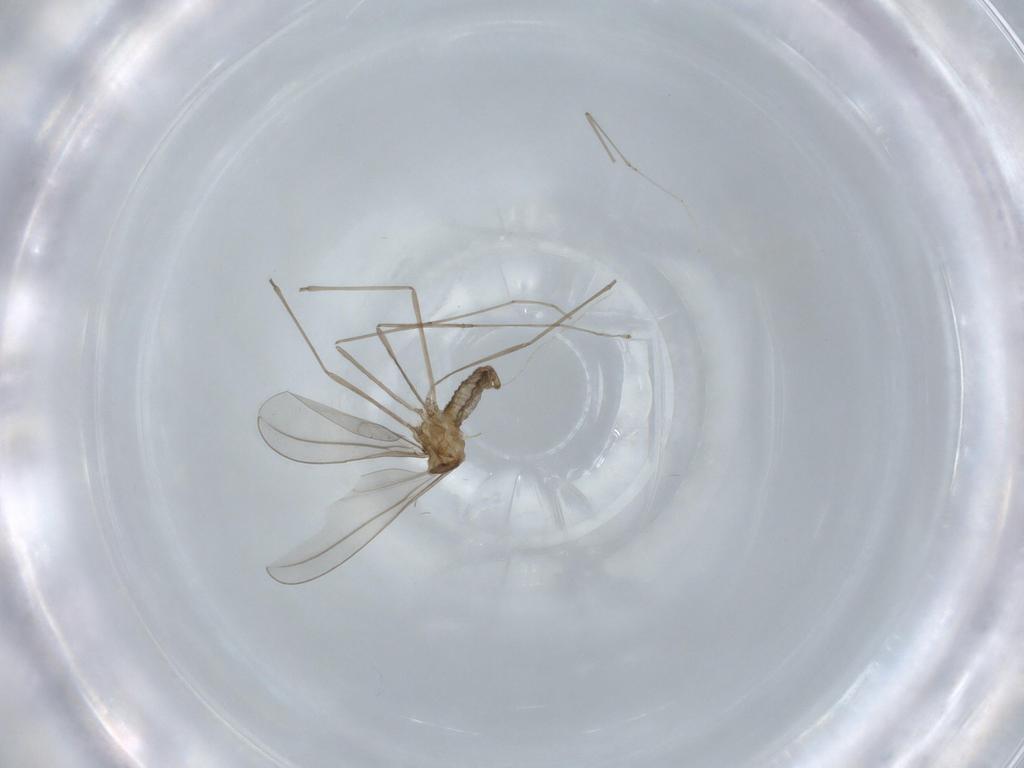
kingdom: Animalia
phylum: Arthropoda
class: Insecta
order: Diptera
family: Cecidomyiidae
